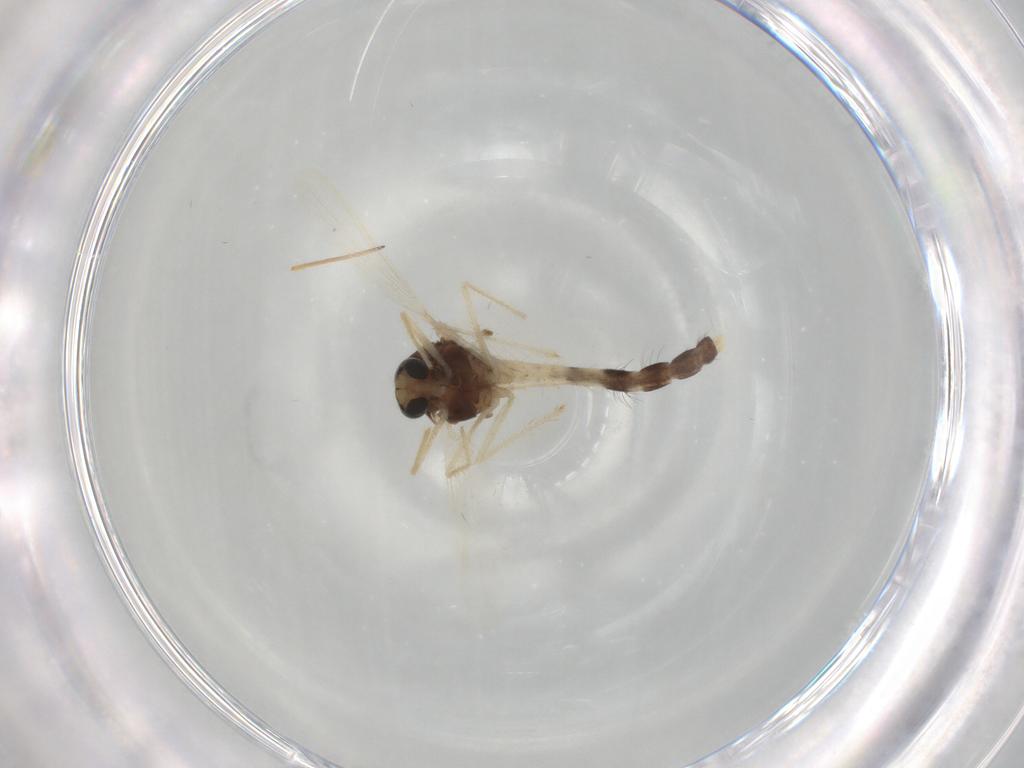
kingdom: Animalia
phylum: Arthropoda
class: Insecta
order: Diptera
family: Chironomidae
